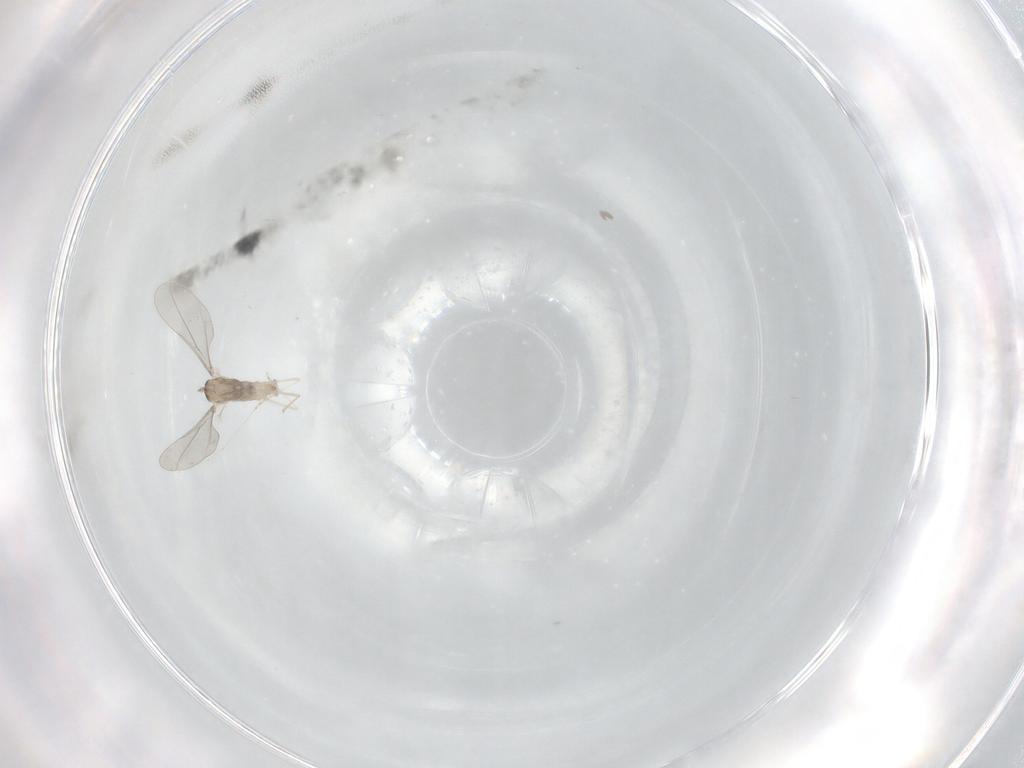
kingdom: Animalia
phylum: Arthropoda
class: Insecta
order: Diptera
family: Cecidomyiidae
